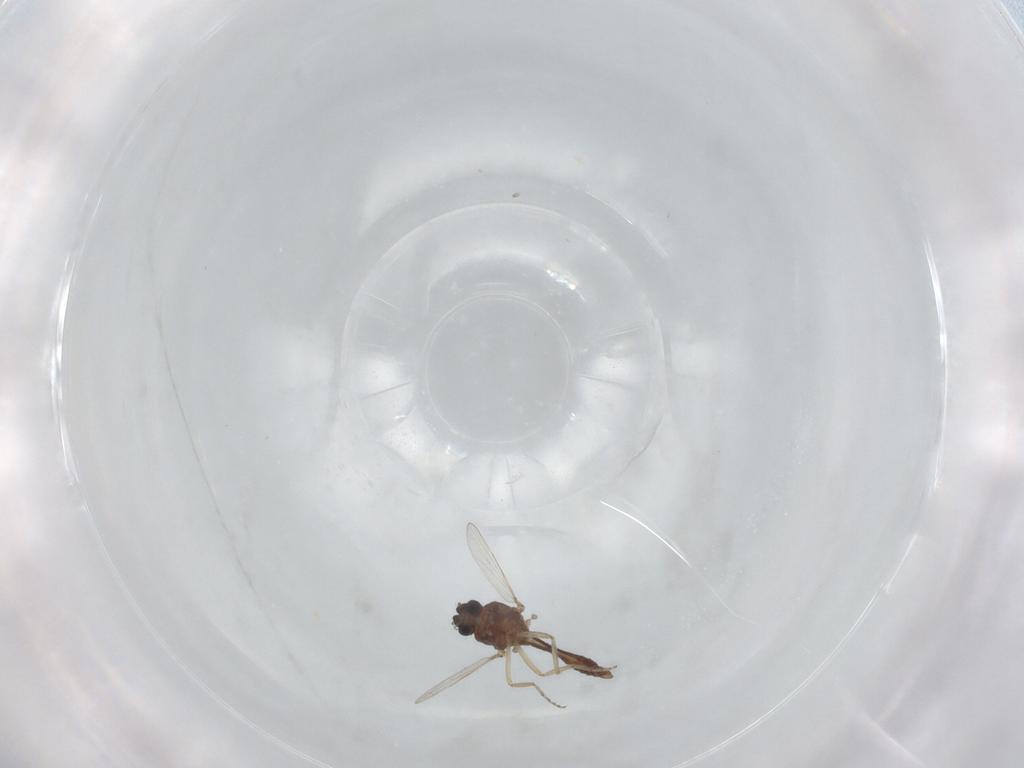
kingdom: Animalia
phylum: Arthropoda
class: Insecta
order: Diptera
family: Ceratopogonidae
